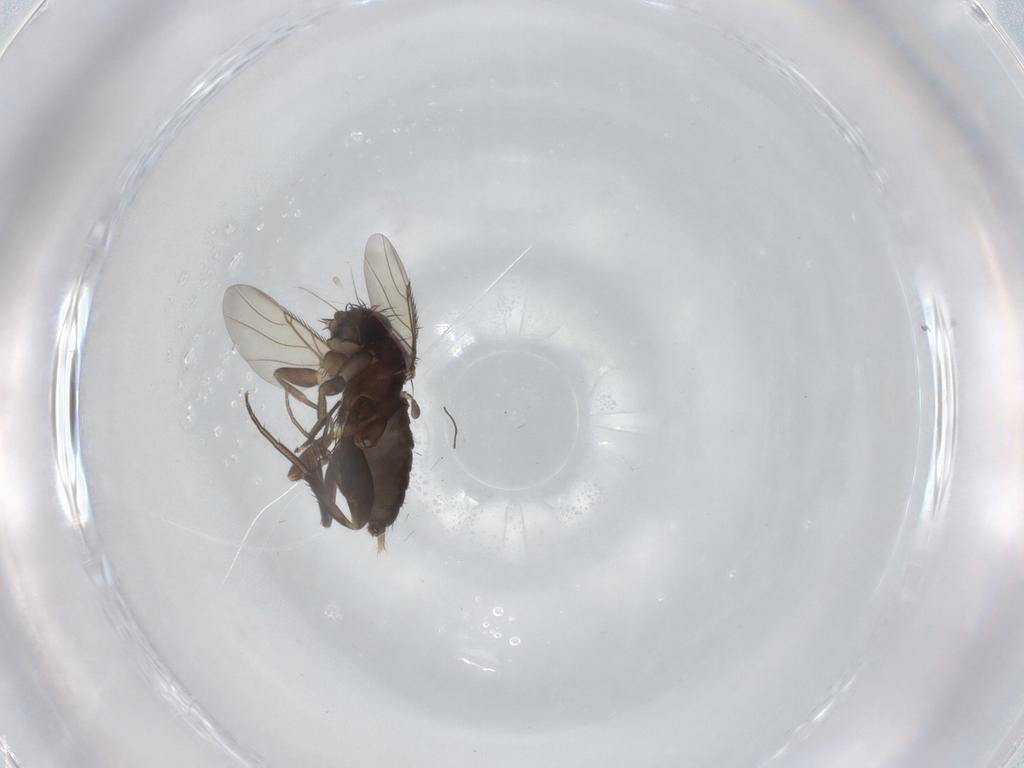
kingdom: Animalia
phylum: Arthropoda
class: Insecta
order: Diptera
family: Phoridae
